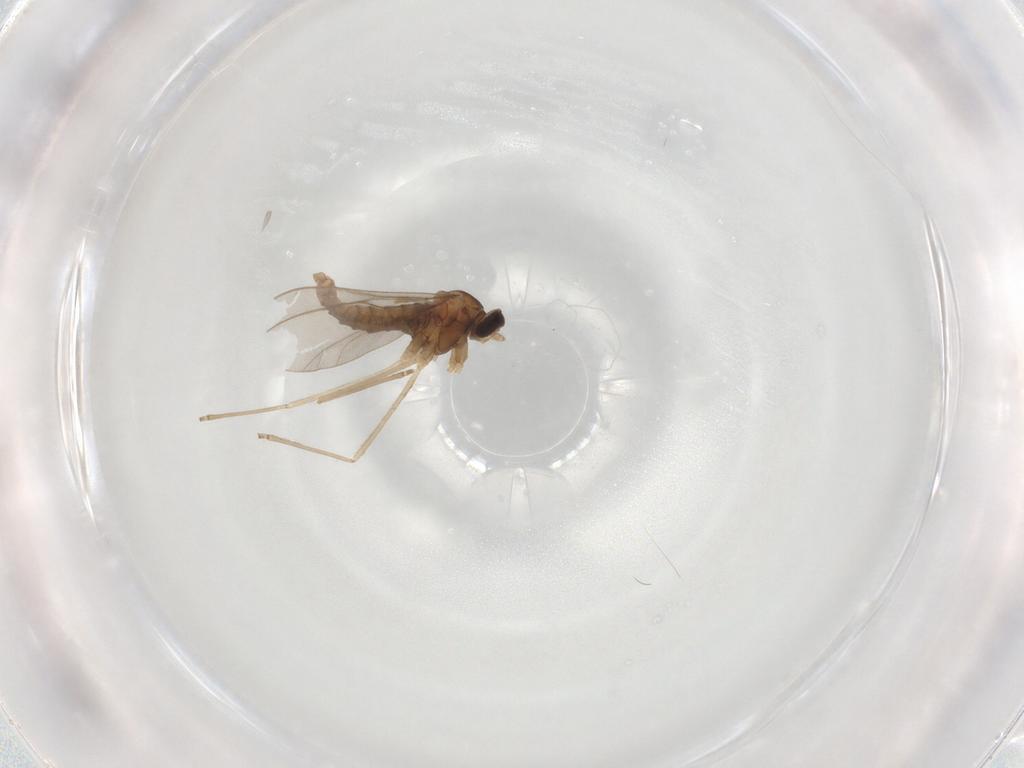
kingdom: Animalia
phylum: Arthropoda
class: Insecta
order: Diptera
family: Cecidomyiidae
